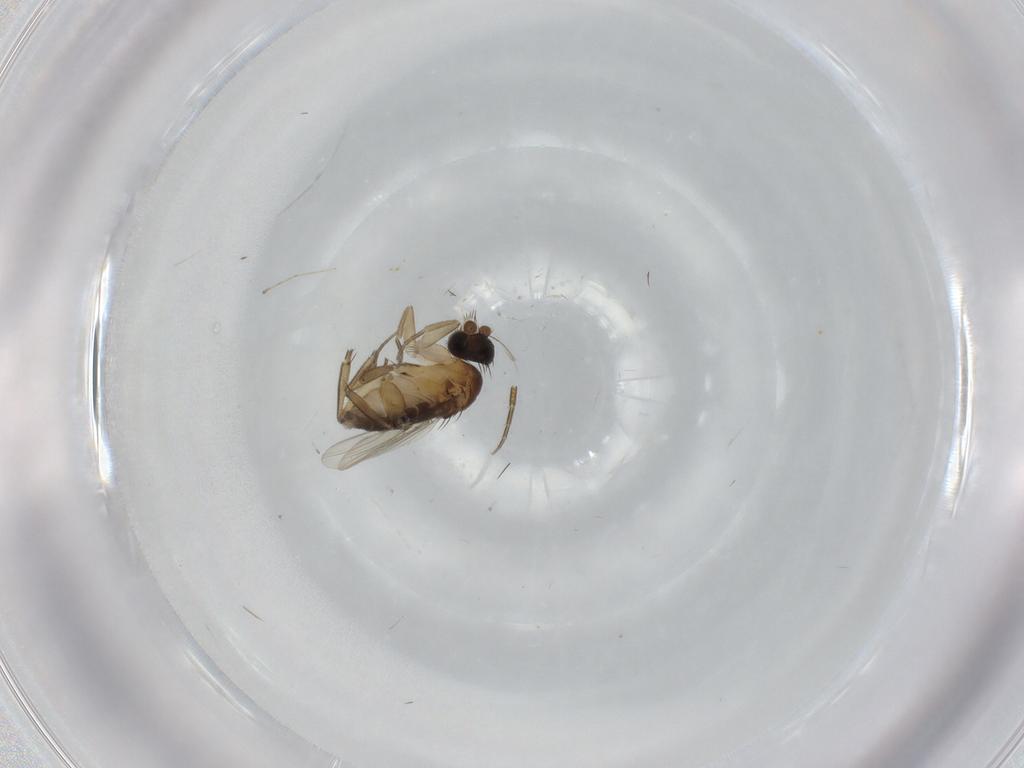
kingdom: Animalia
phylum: Arthropoda
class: Insecta
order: Diptera
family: Phoridae
